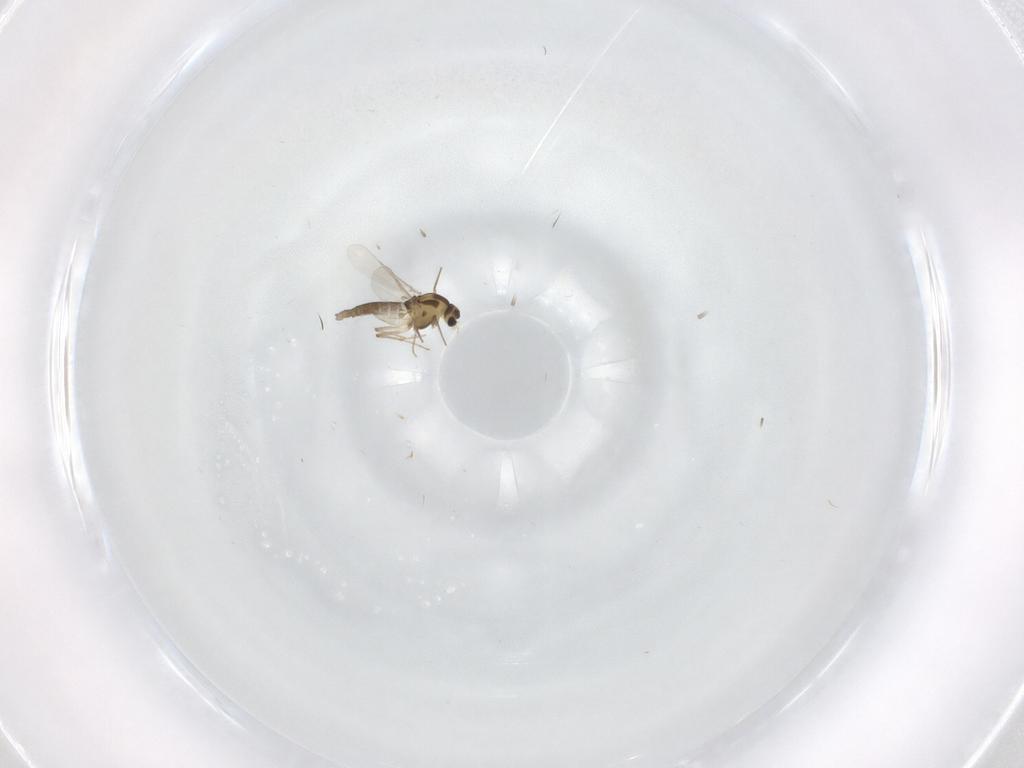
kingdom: Animalia
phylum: Arthropoda
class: Insecta
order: Diptera
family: Chironomidae
